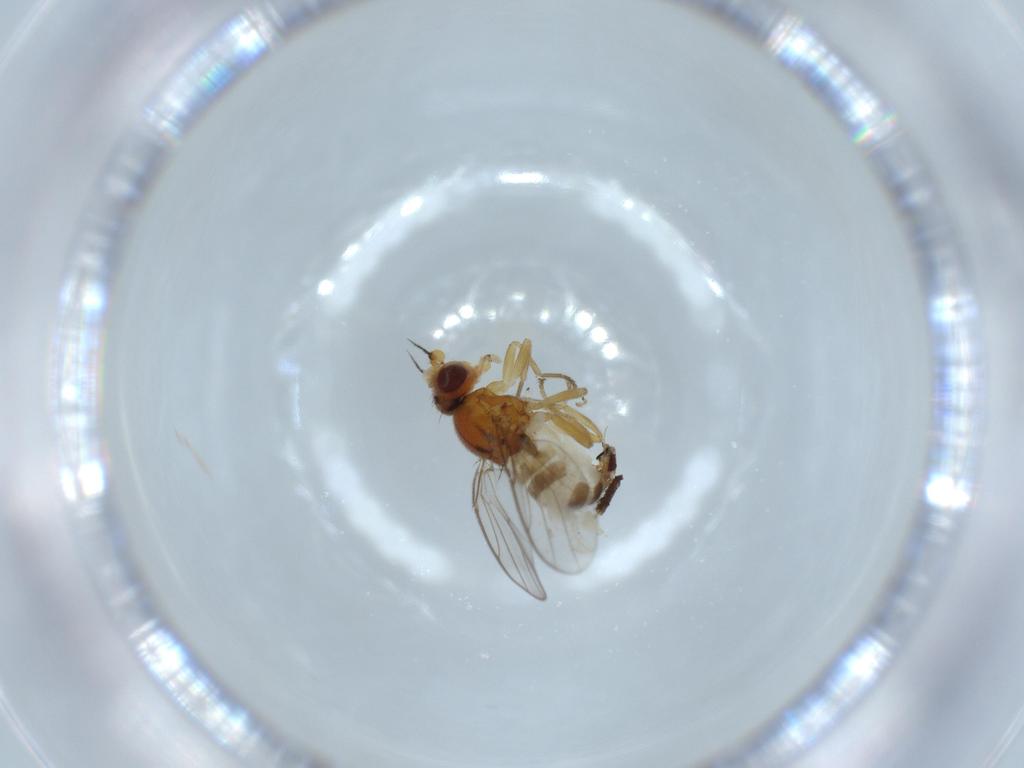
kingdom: Animalia
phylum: Arthropoda
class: Insecta
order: Diptera
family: Chloropidae
